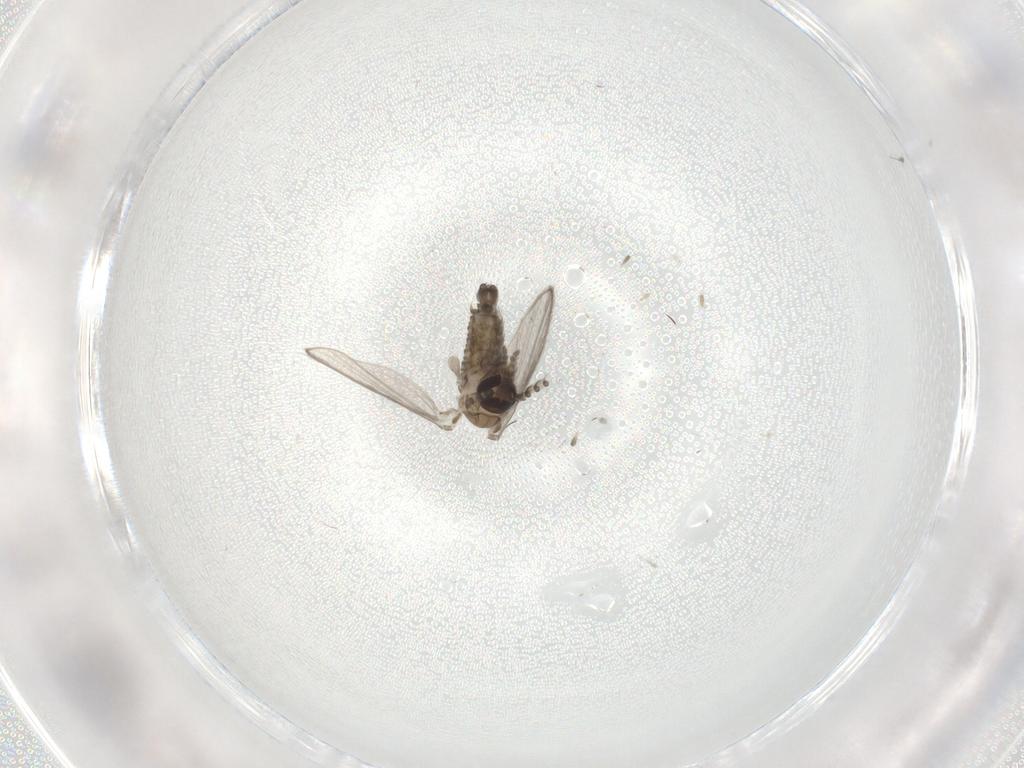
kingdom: Animalia
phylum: Arthropoda
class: Insecta
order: Diptera
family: Psychodidae
